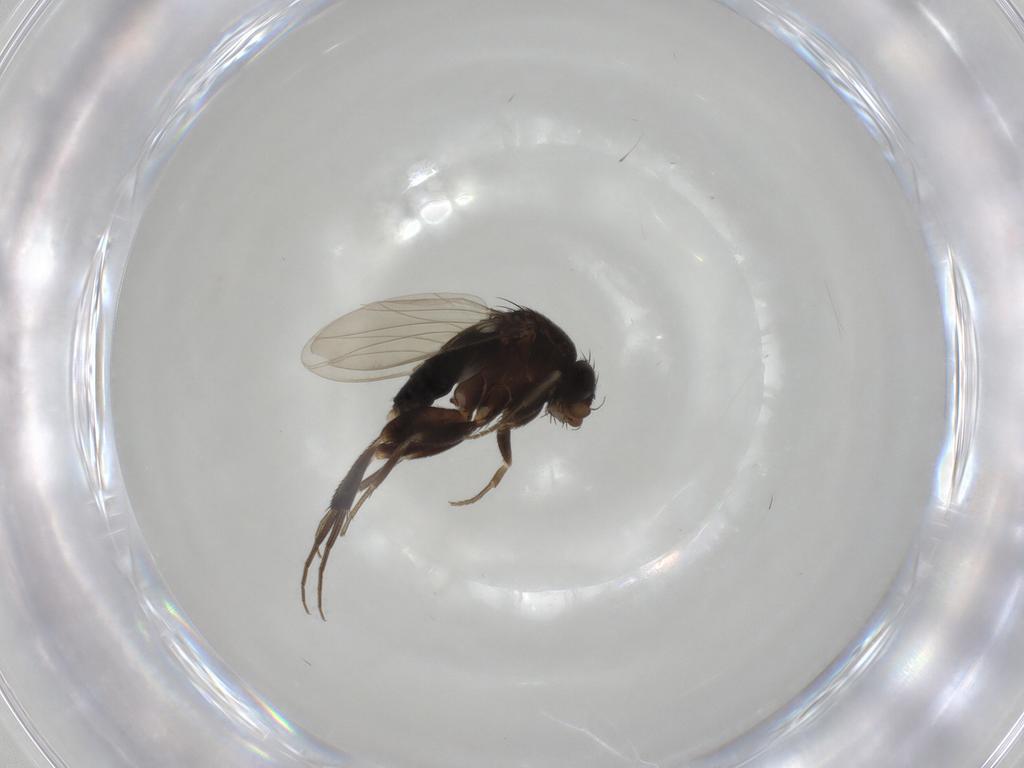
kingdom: Animalia
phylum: Arthropoda
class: Insecta
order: Diptera
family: Phoridae
